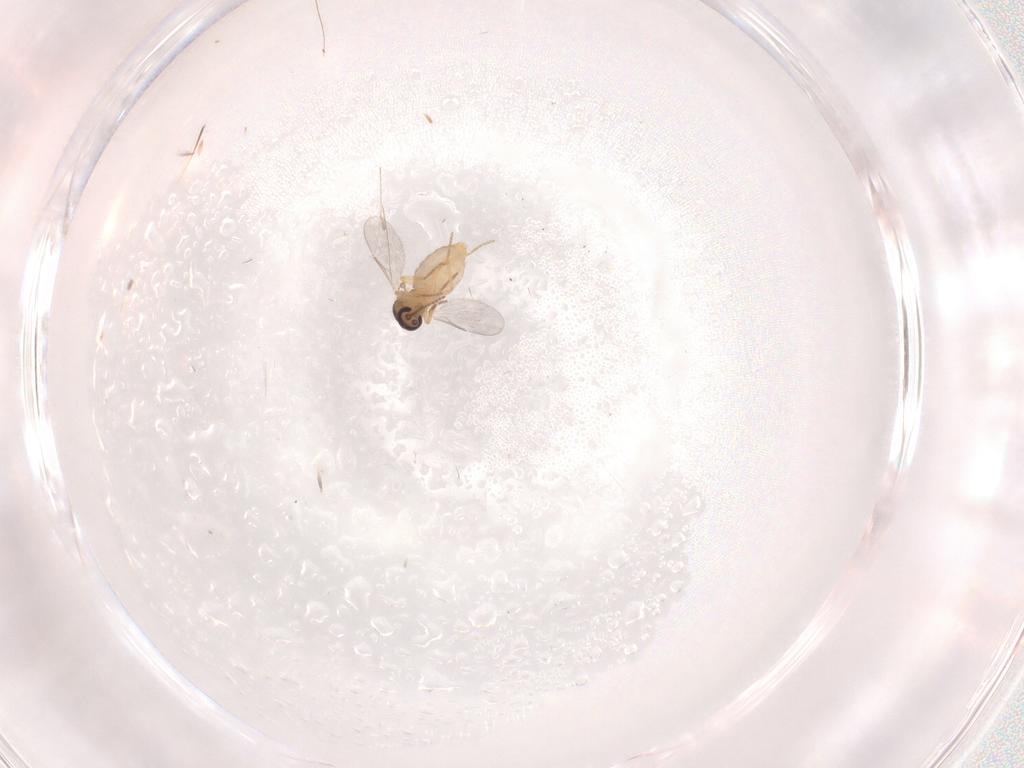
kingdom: Animalia
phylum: Arthropoda
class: Insecta
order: Diptera
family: Ceratopogonidae
